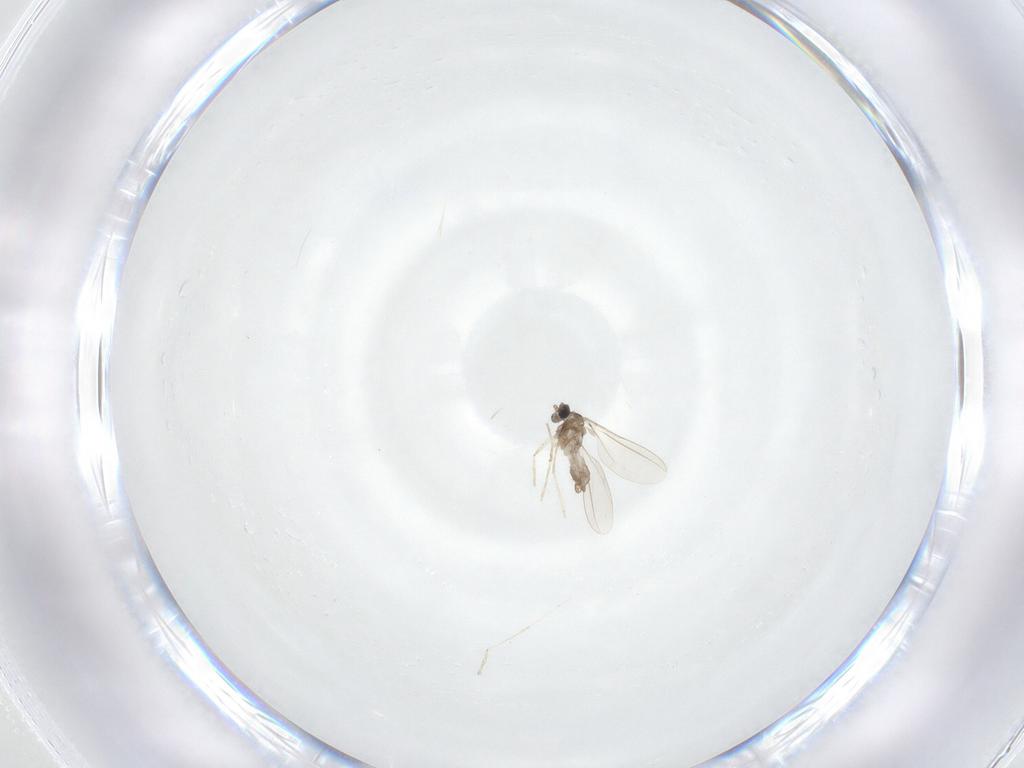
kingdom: Animalia
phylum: Arthropoda
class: Insecta
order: Diptera
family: Cecidomyiidae
